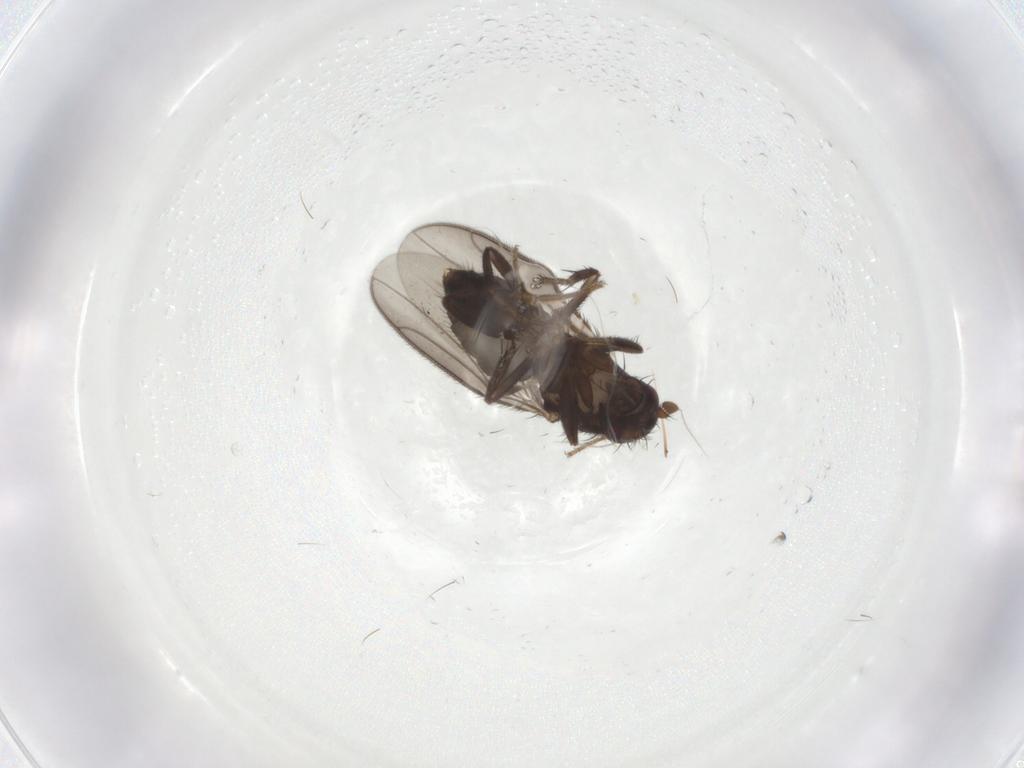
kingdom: Animalia
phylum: Arthropoda
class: Insecta
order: Diptera
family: Sphaeroceridae
